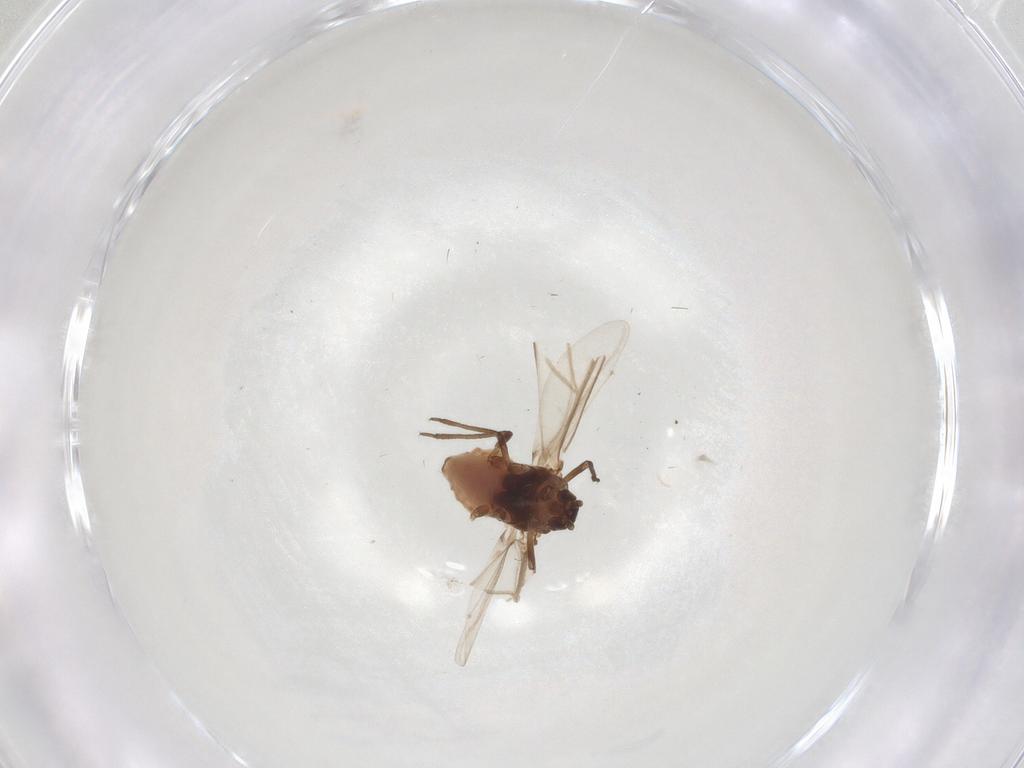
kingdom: Animalia
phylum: Arthropoda
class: Insecta
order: Hemiptera
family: Aphididae
